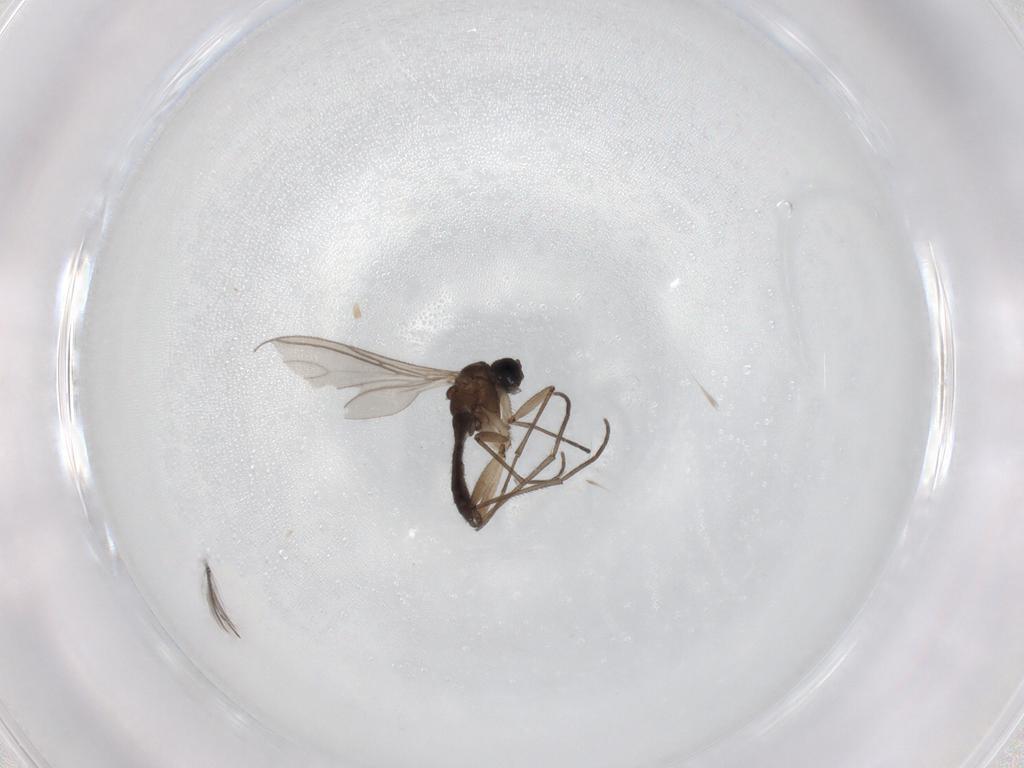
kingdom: Animalia
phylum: Arthropoda
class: Insecta
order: Diptera
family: Sciaridae
